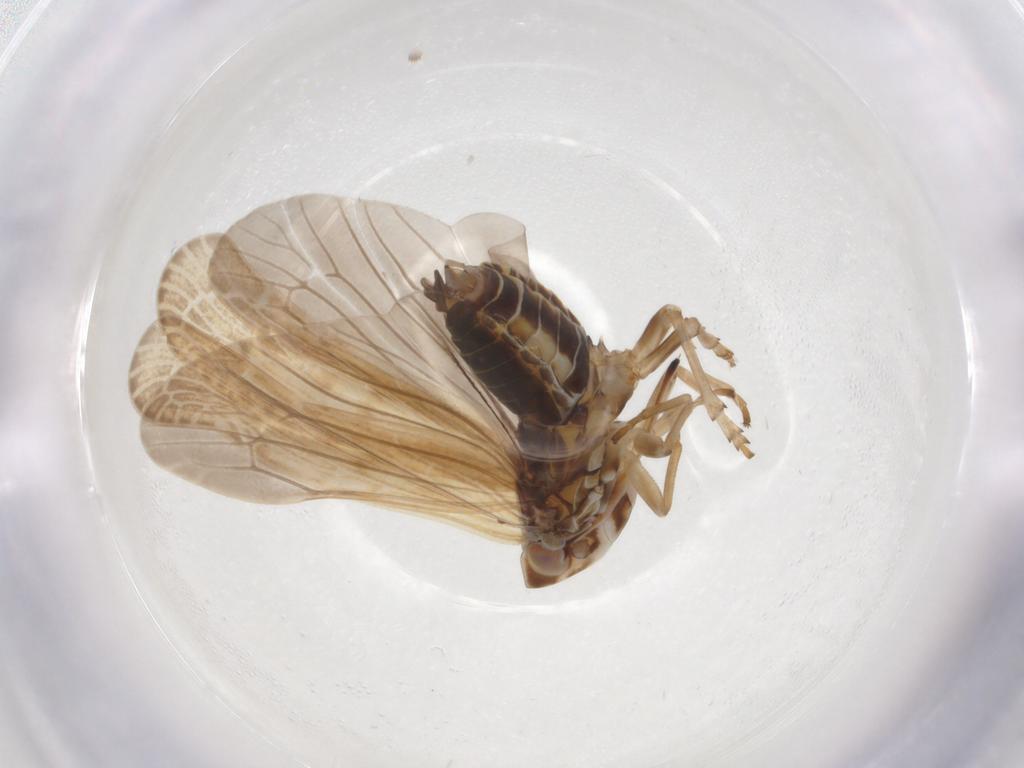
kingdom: Animalia
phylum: Arthropoda
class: Insecta
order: Hemiptera
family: Achilidae
